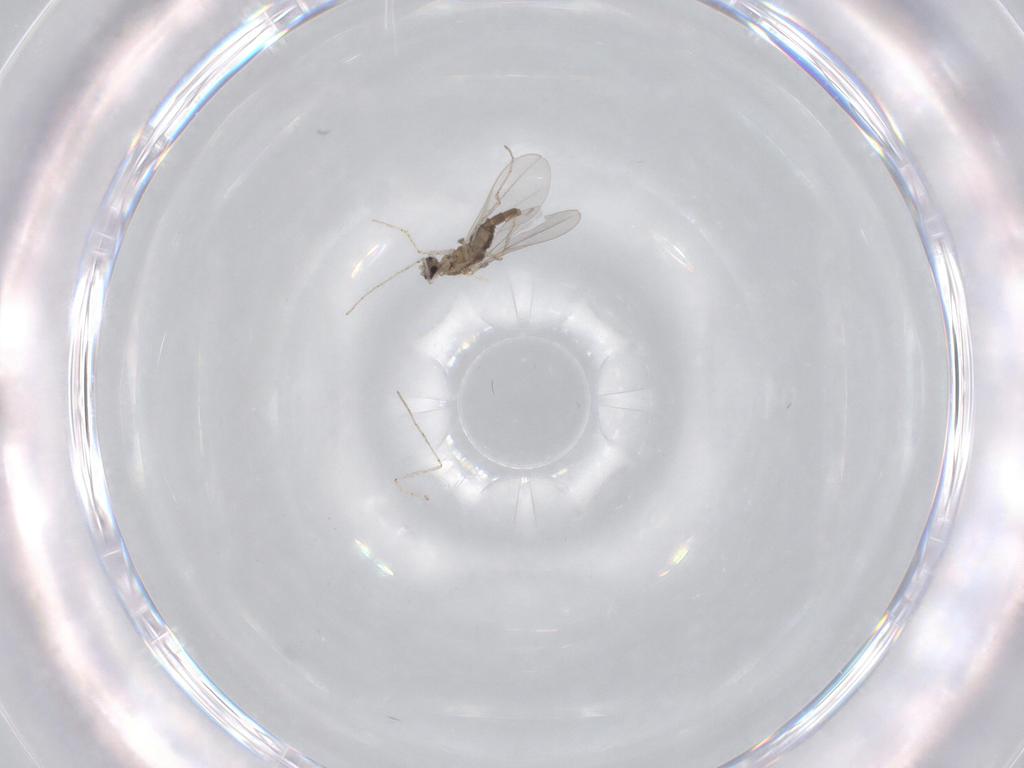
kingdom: Animalia
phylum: Arthropoda
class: Insecta
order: Diptera
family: Cecidomyiidae
